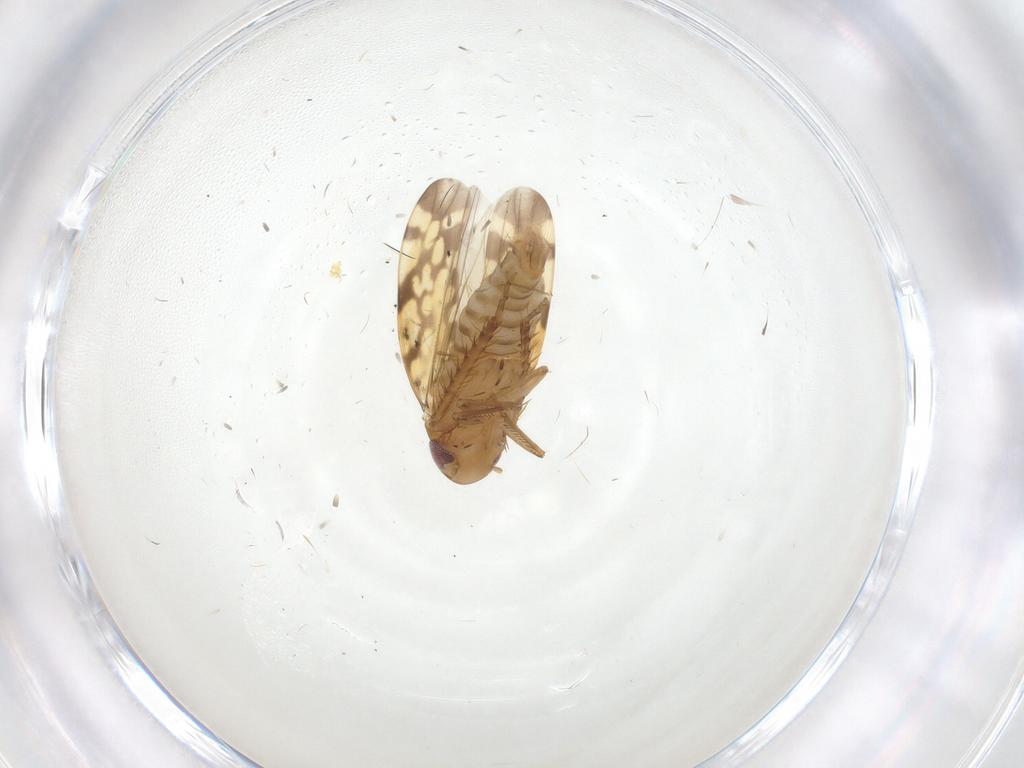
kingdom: Animalia
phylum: Arthropoda
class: Insecta
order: Hemiptera
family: Cicadellidae
